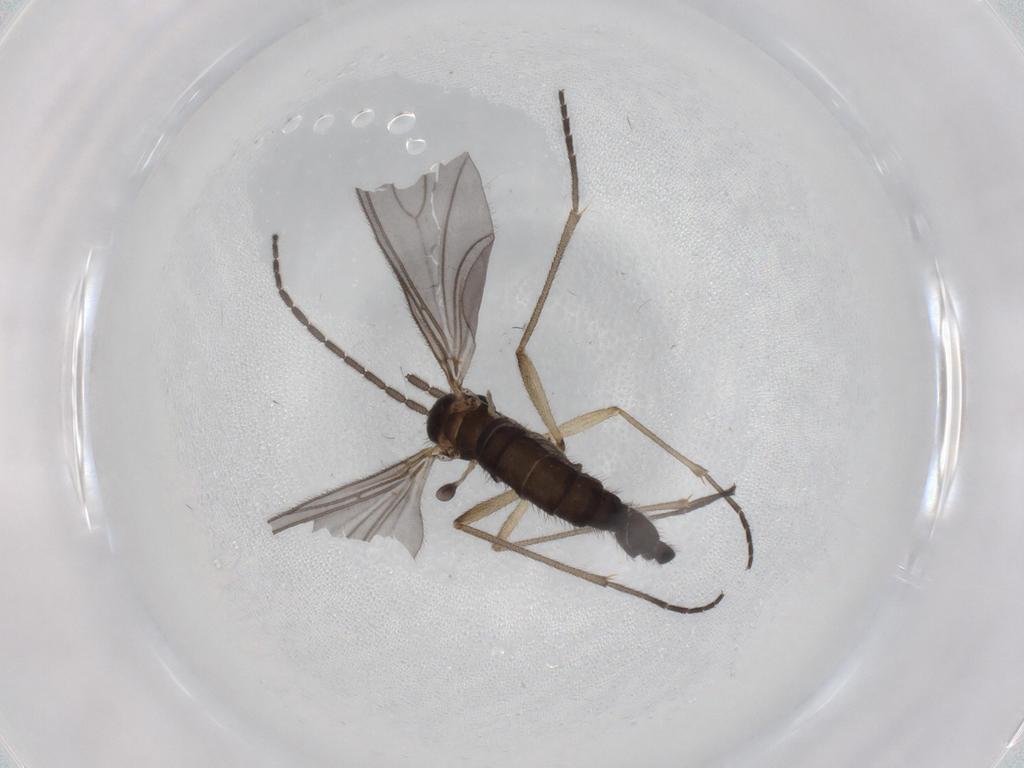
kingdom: Animalia
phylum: Arthropoda
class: Insecta
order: Diptera
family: Sciaridae
